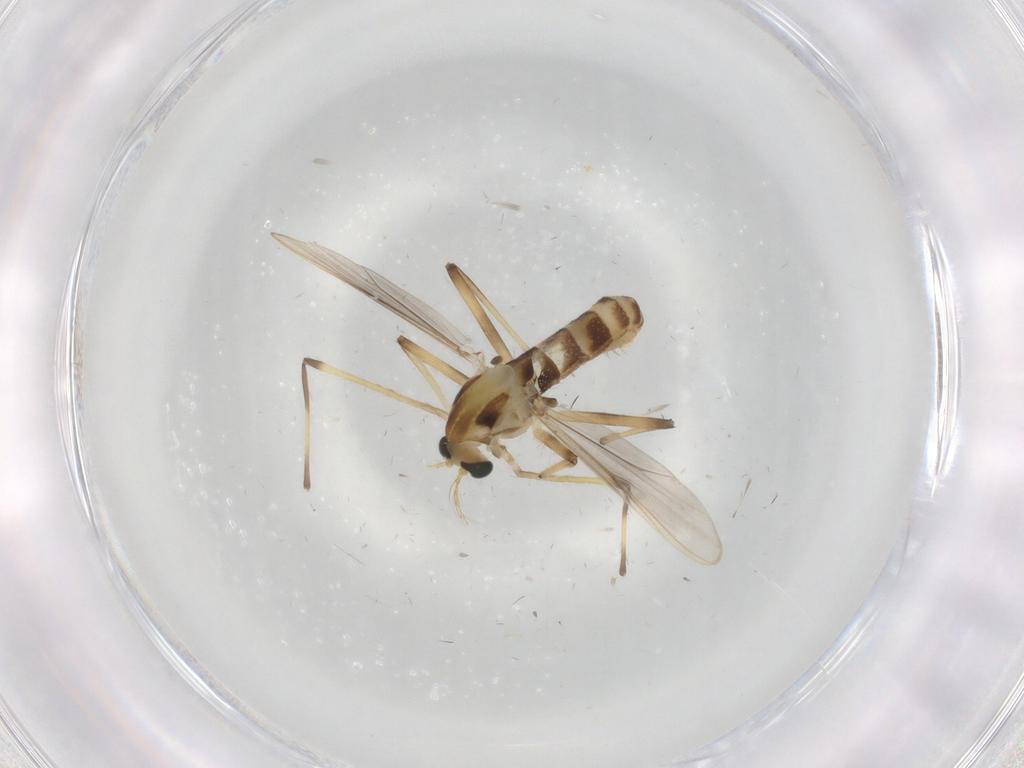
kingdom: Animalia
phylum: Arthropoda
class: Insecta
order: Diptera
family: Chironomidae
